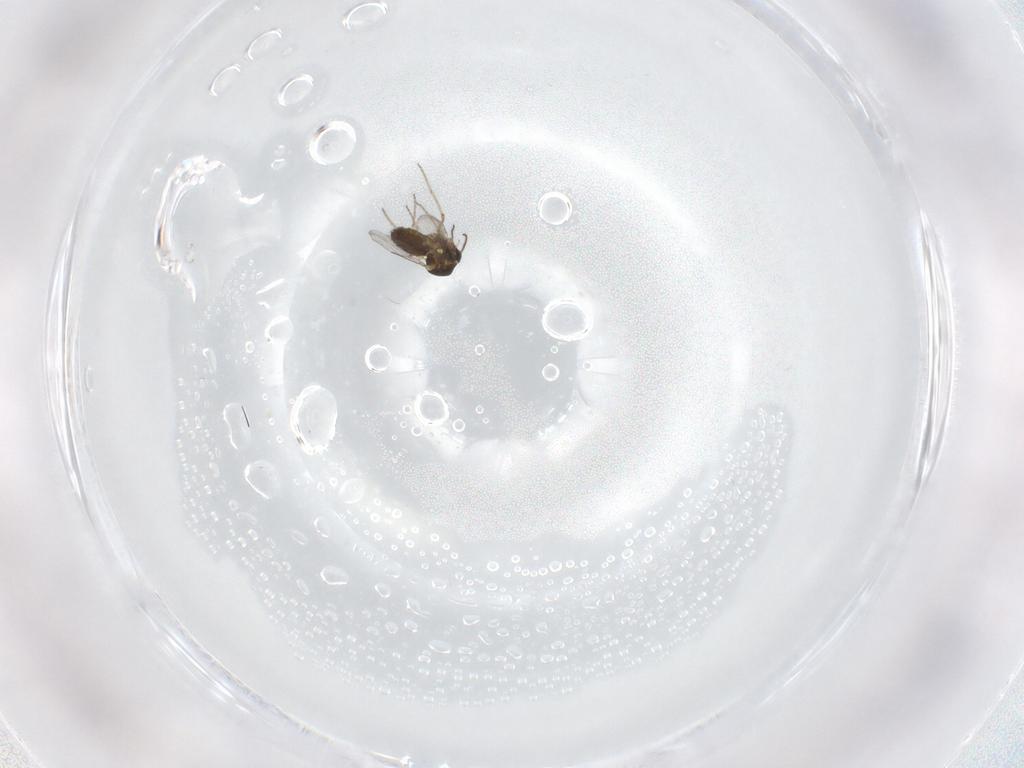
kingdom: Animalia
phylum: Arthropoda
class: Insecta
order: Diptera
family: Ceratopogonidae
